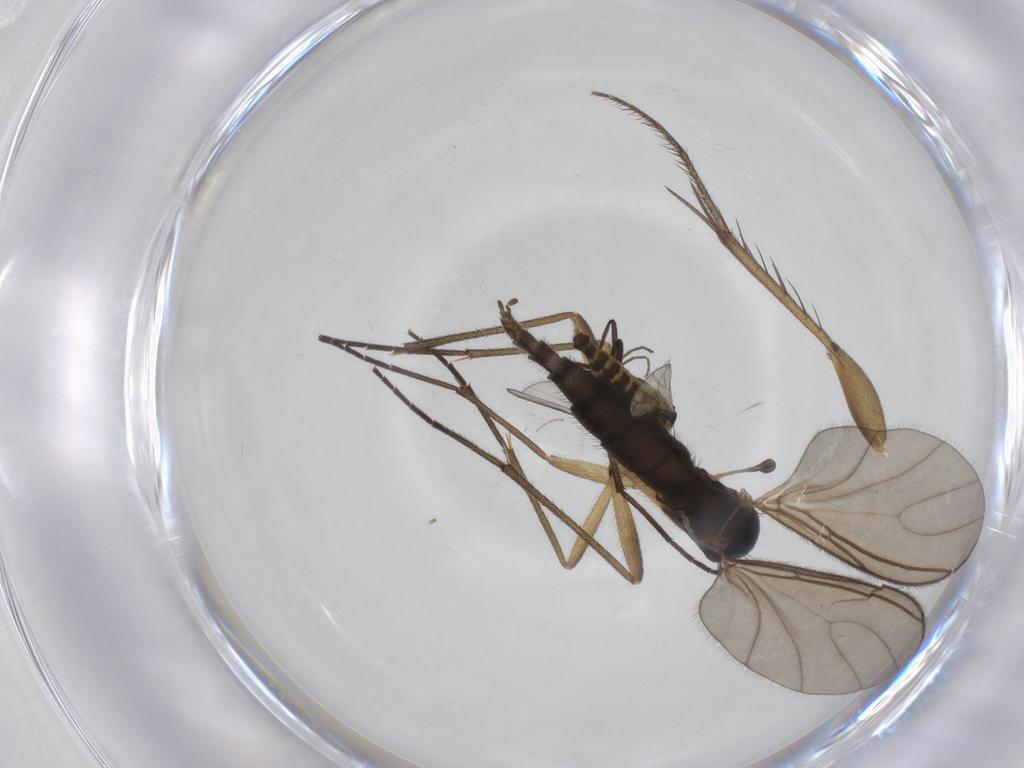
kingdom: Animalia
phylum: Arthropoda
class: Insecta
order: Diptera
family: Chironomidae
